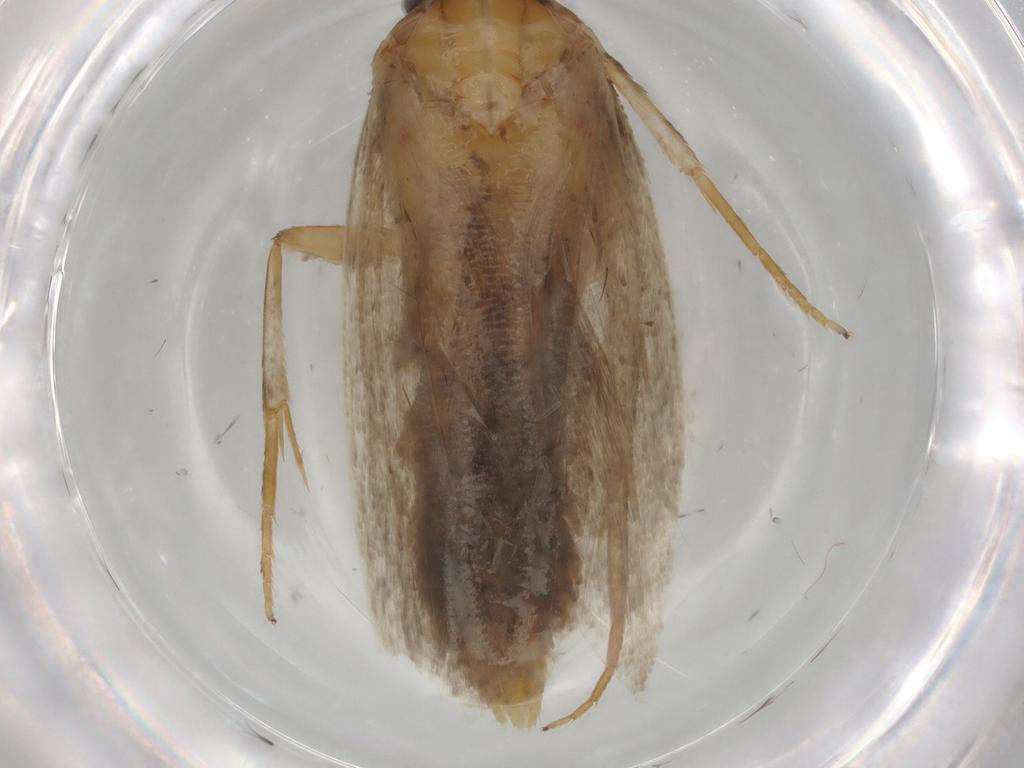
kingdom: Animalia
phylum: Arthropoda
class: Insecta
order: Lepidoptera
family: Oecophoridae
